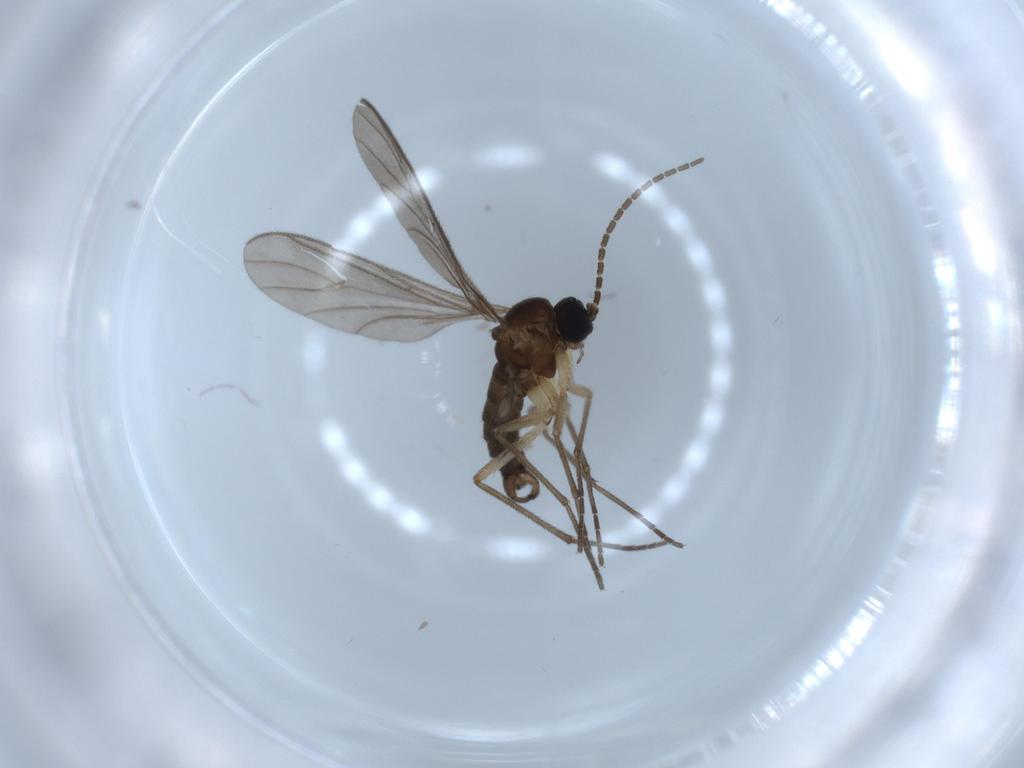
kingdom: Animalia
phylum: Arthropoda
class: Insecta
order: Diptera
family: Sciaridae
